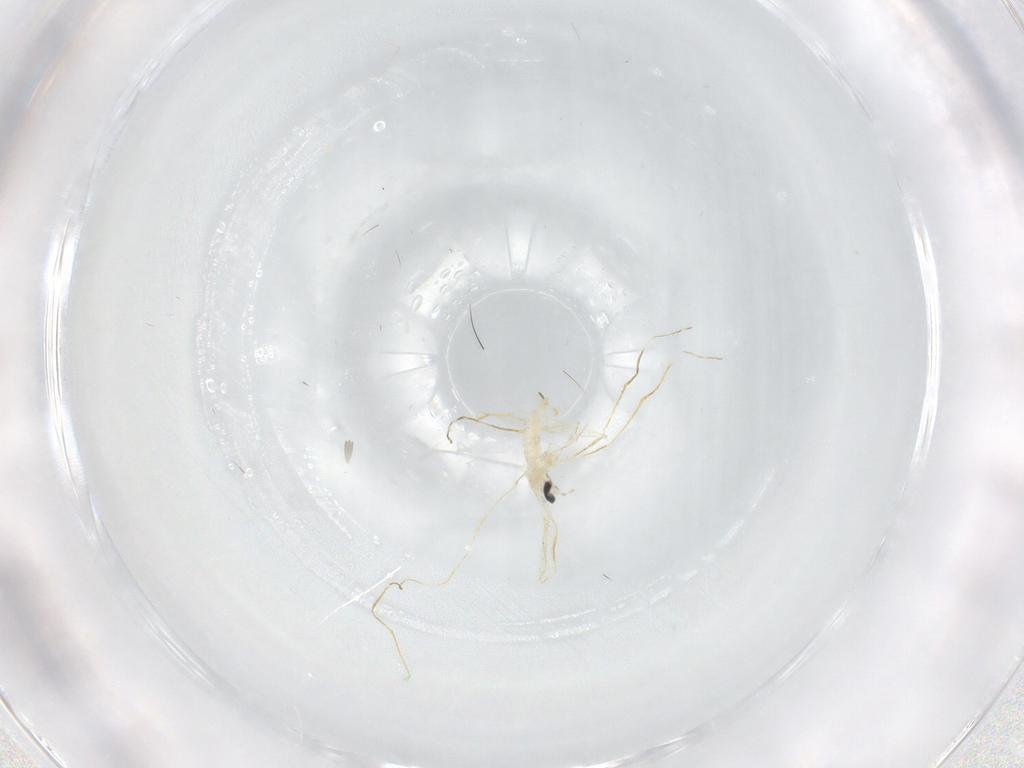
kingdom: Animalia
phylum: Arthropoda
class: Insecta
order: Diptera
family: Cecidomyiidae
